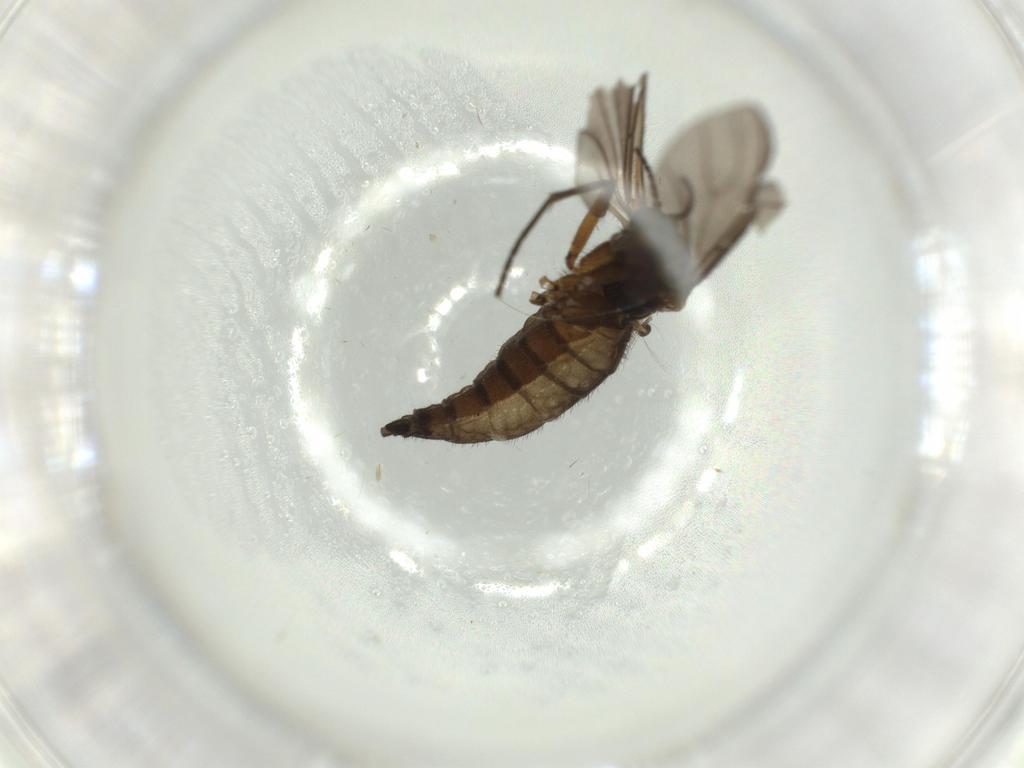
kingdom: Animalia
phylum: Arthropoda
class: Insecta
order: Diptera
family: Sciaridae
